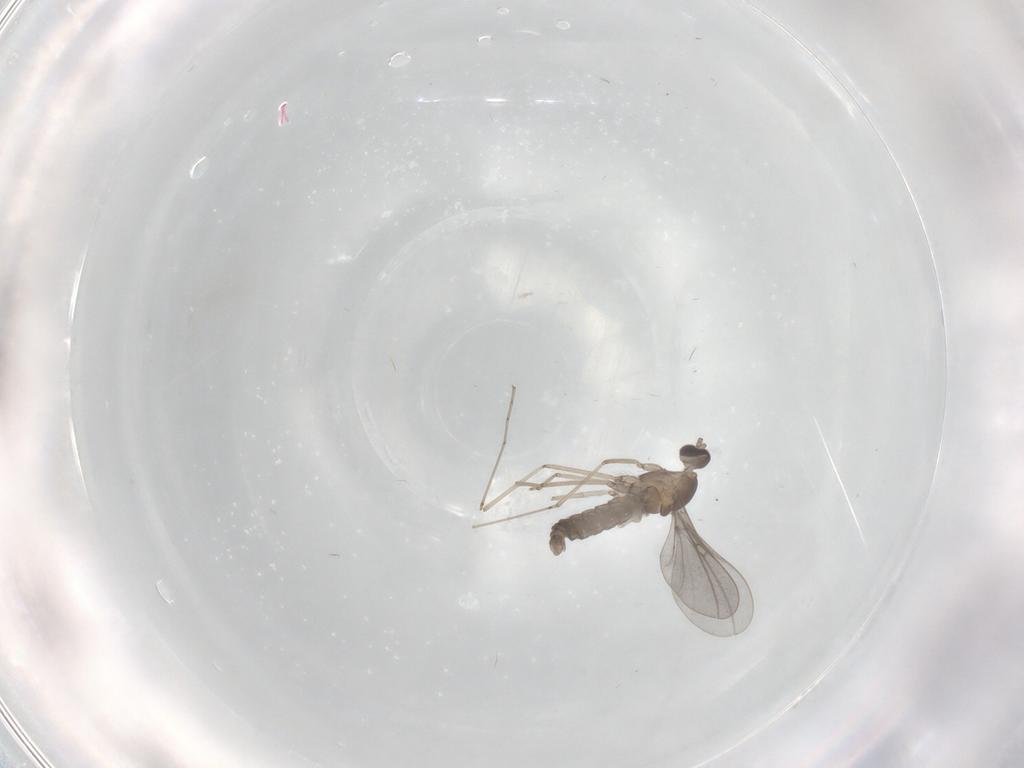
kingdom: Animalia
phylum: Arthropoda
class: Insecta
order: Diptera
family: Cecidomyiidae
